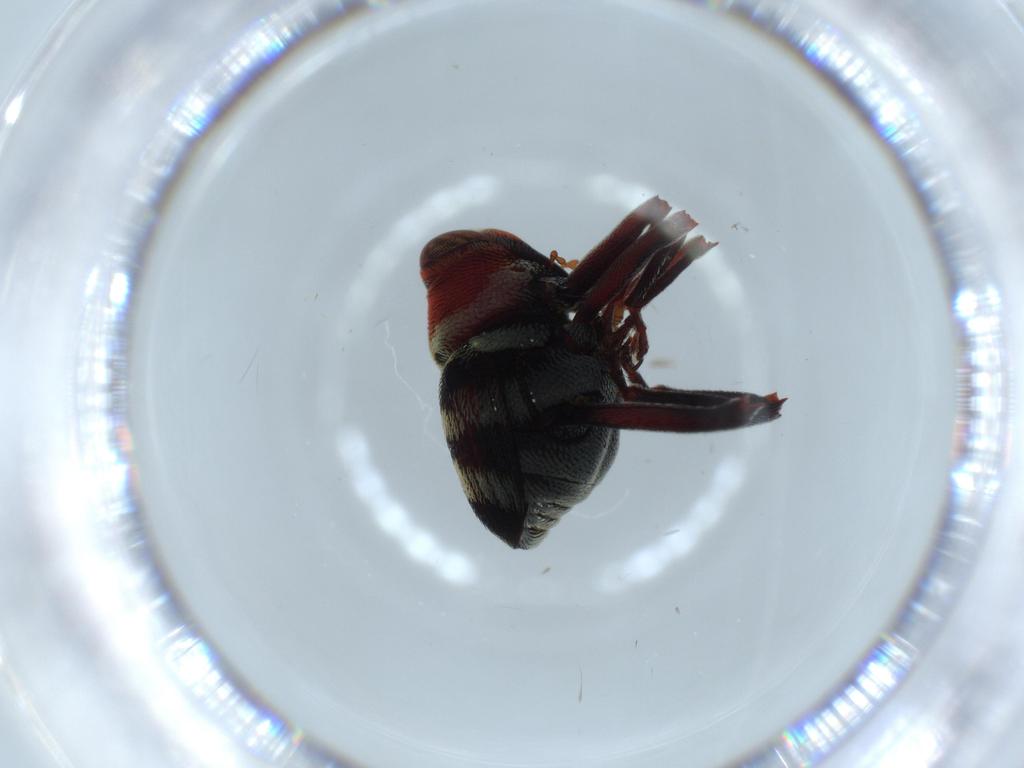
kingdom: Animalia
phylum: Arthropoda
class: Insecta
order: Coleoptera
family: Curculionidae
